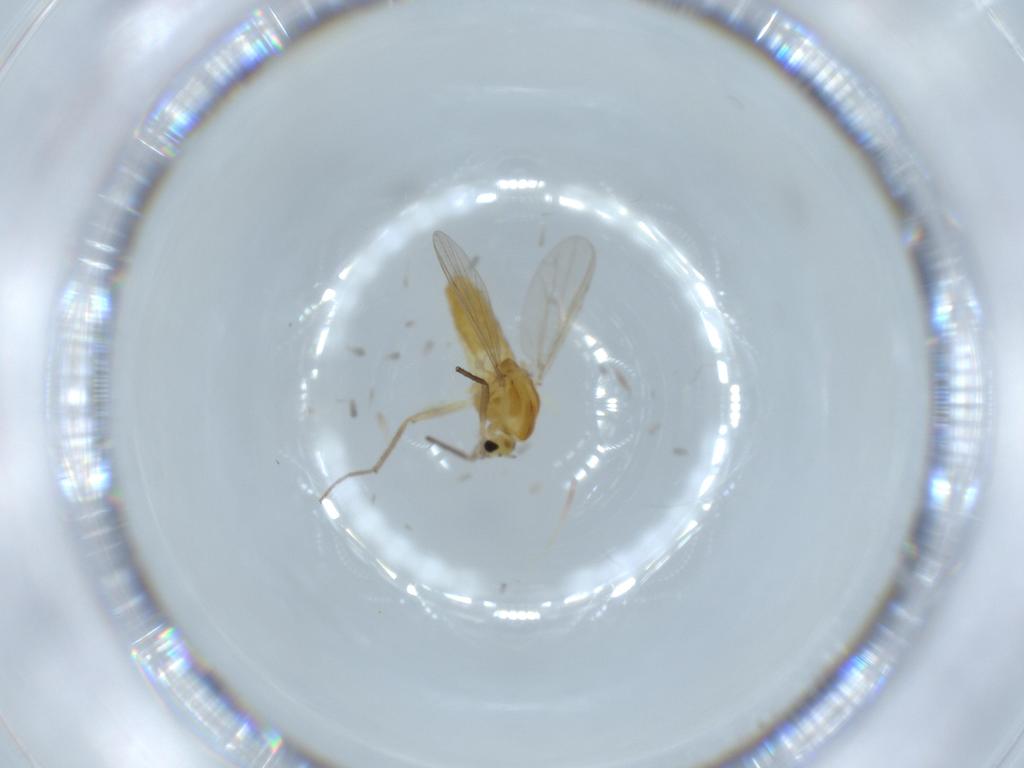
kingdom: Animalia
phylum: Arthropoda
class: Insecta
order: Diptera
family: Chironomidae
